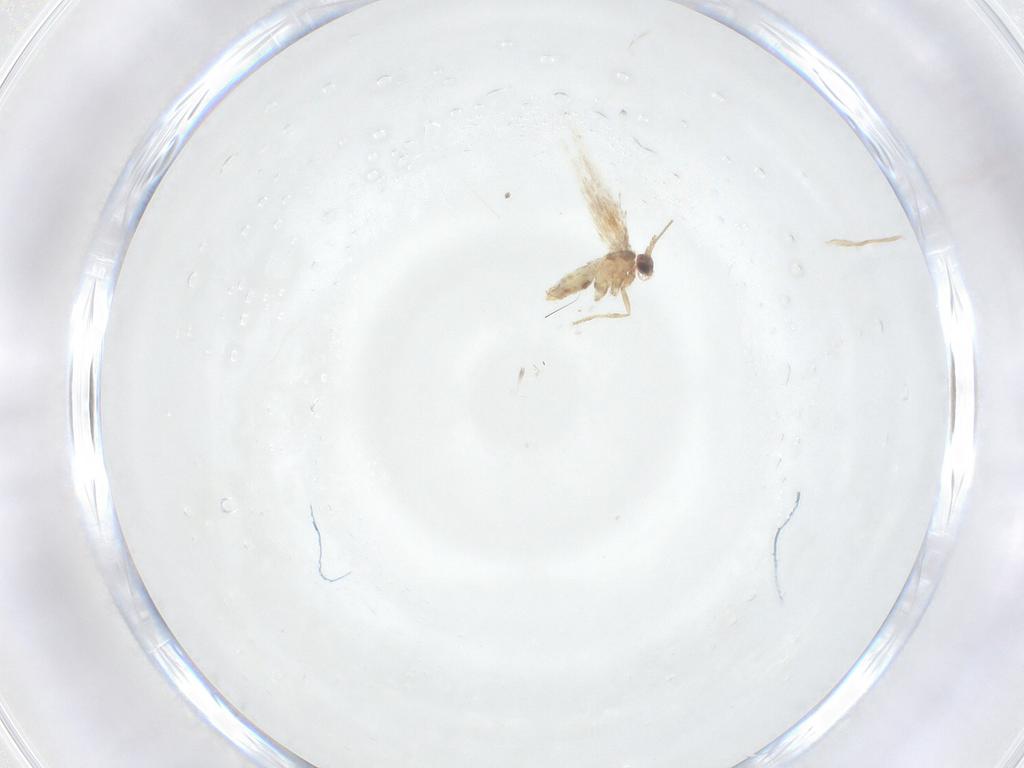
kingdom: Animalia
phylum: Arthropoda
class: Insecta
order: Lepidoptera
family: Nepticulidae
